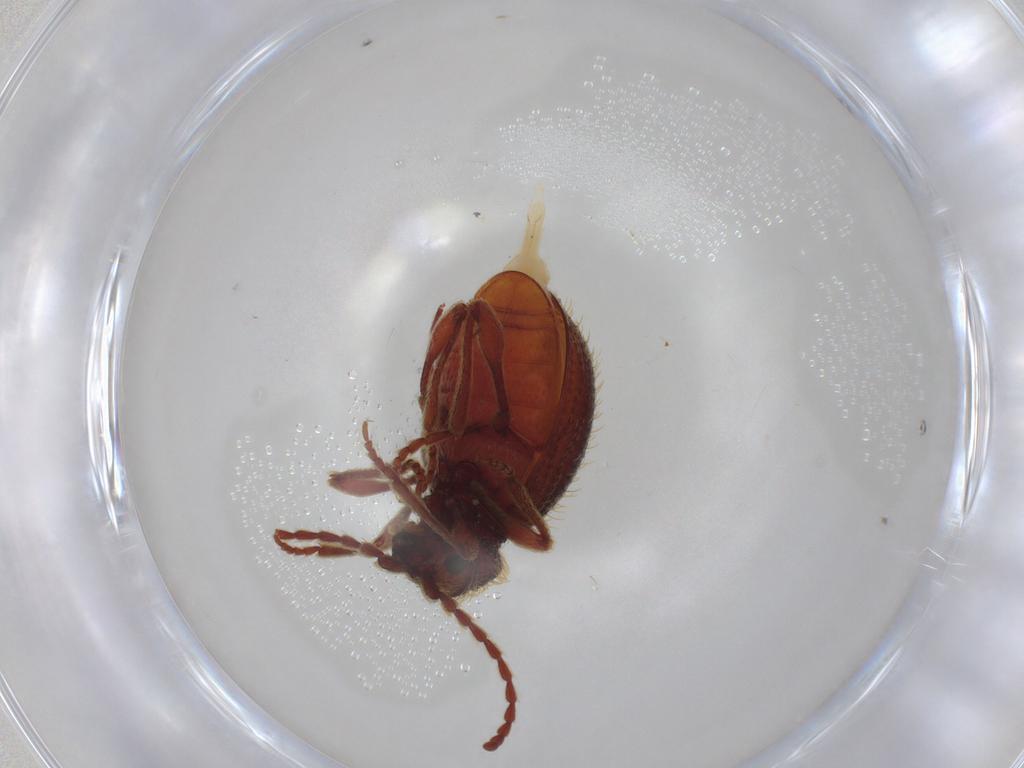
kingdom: Animalia
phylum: Arthropoda
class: Insecta
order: Coleoptera
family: Ptinidae
